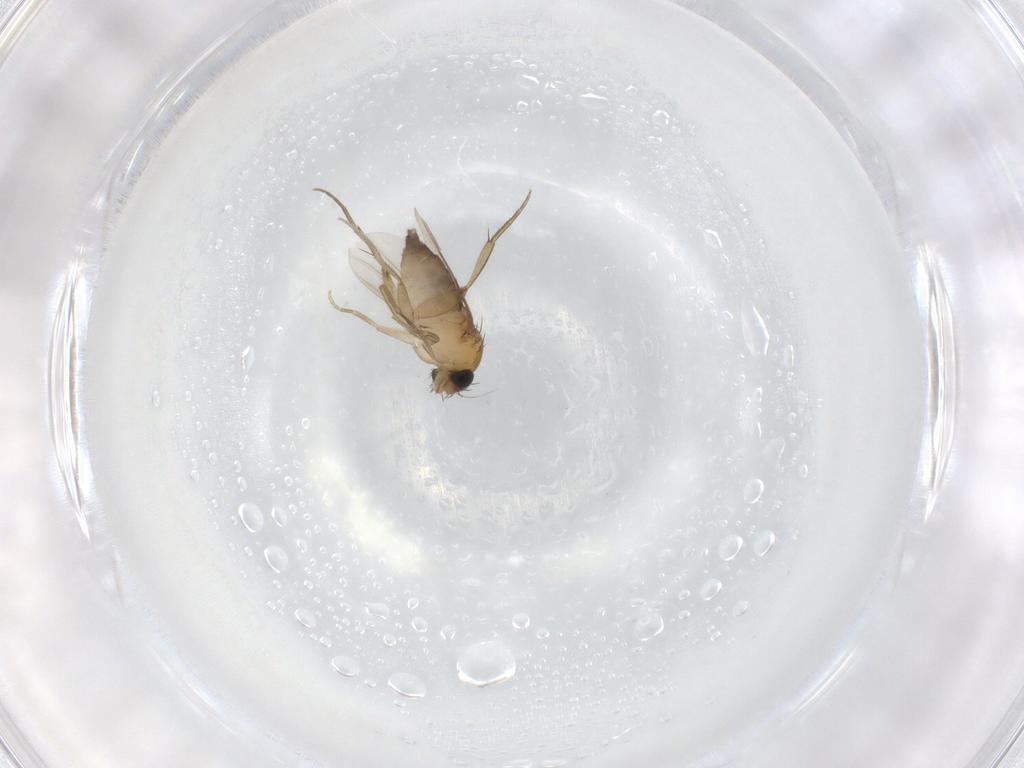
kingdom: Animalia
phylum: Arthropoda
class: Insecta
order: Diptera
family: Phoridae
